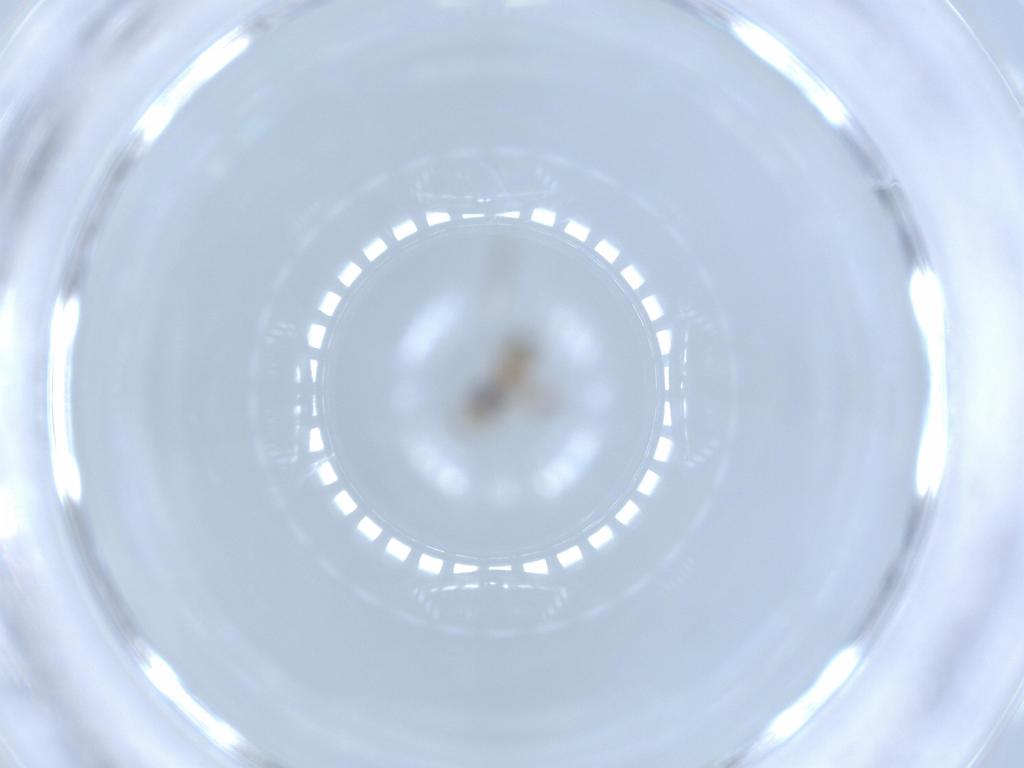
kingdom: Animalia
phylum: Arthropoda
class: Insecta
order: Diptera
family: Cecidomyiidae
